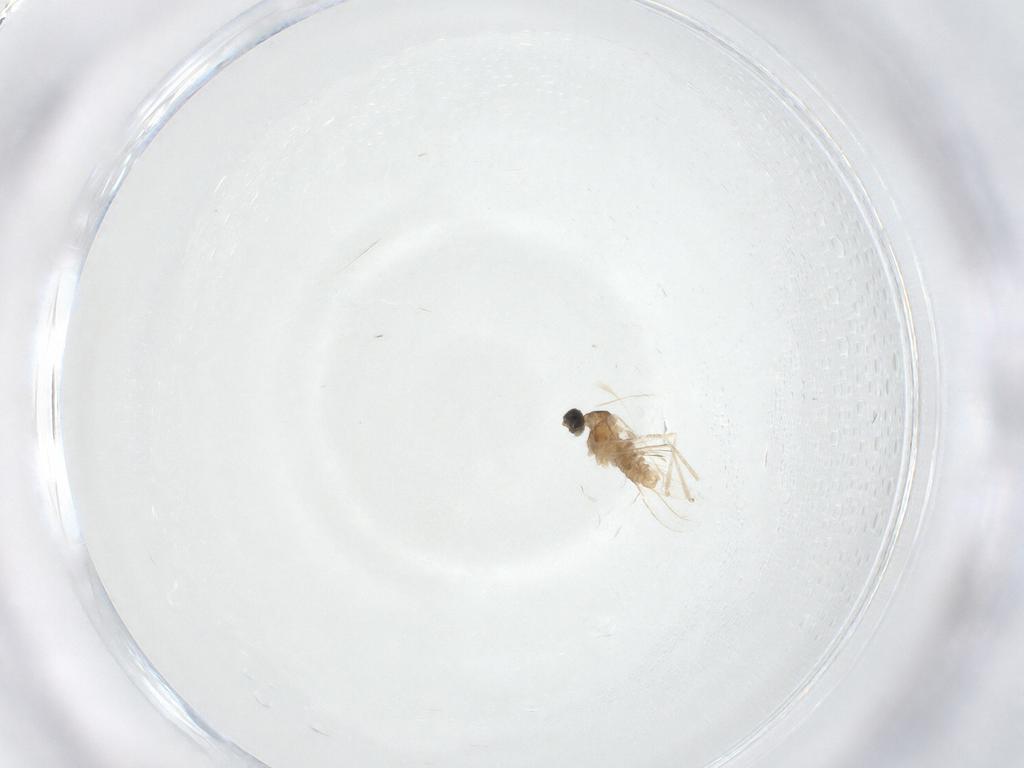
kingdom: Animalia
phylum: Arthropoda
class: Insecta
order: Diptera
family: Cecidomyiidae
